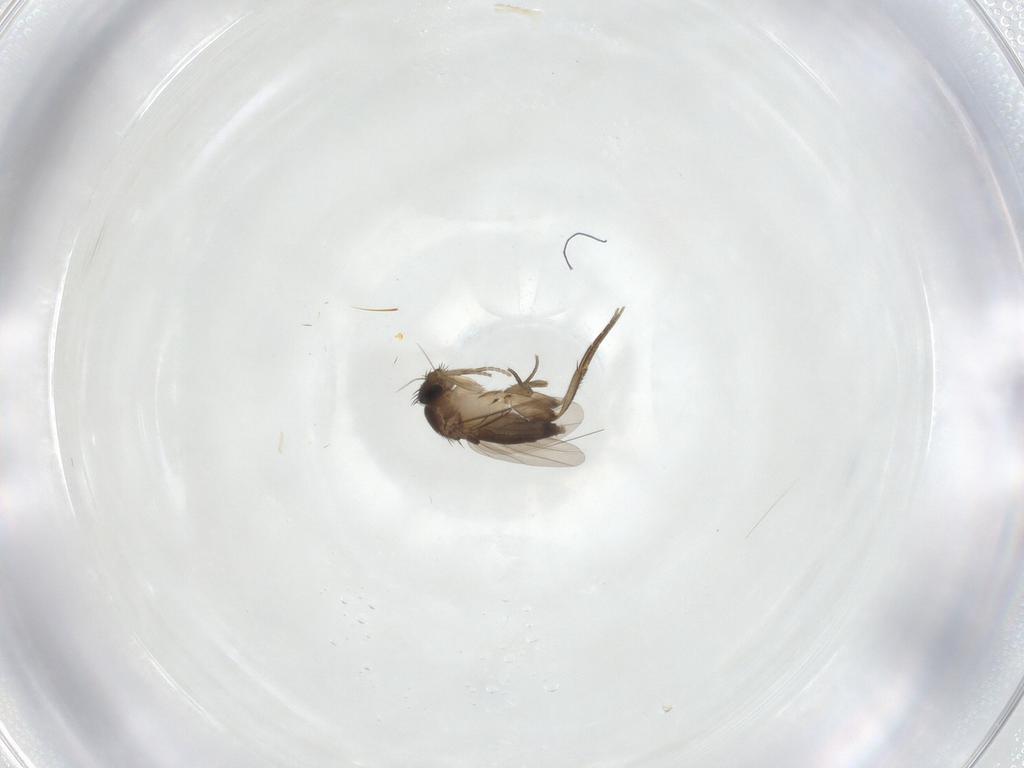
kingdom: Animalia
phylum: Arthropoda
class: Insecta
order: Diptera
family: Phoridae
